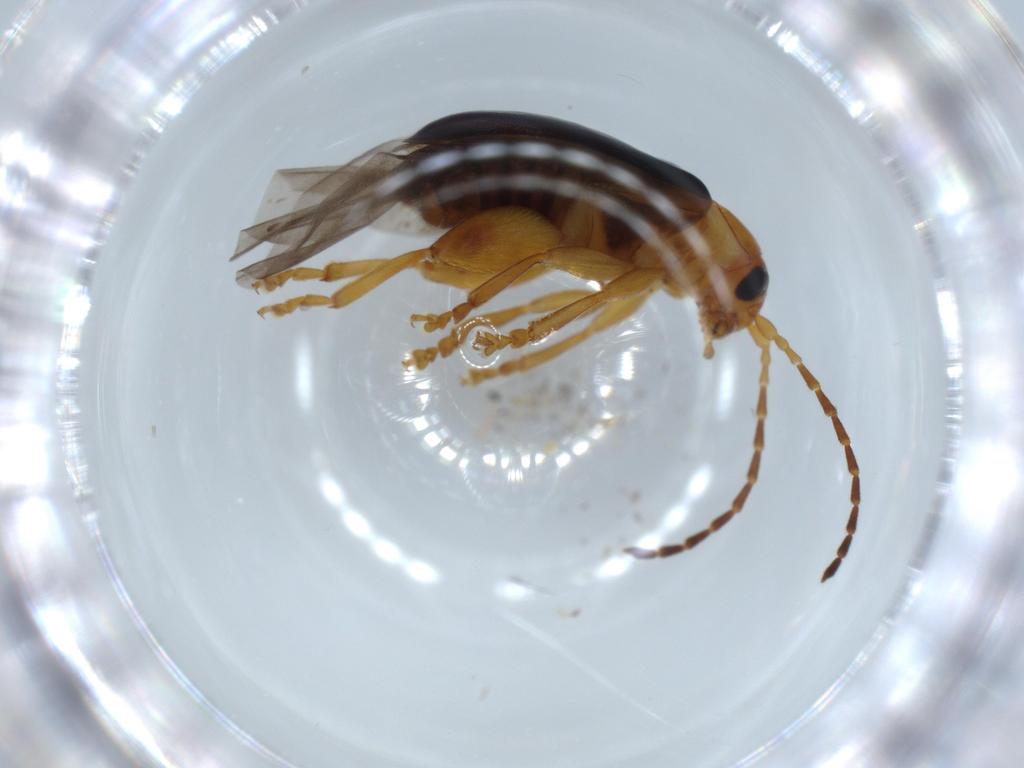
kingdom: Animalia
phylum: Arthropoda
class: Insecta
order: Coleoptera
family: Chrysomelidae
